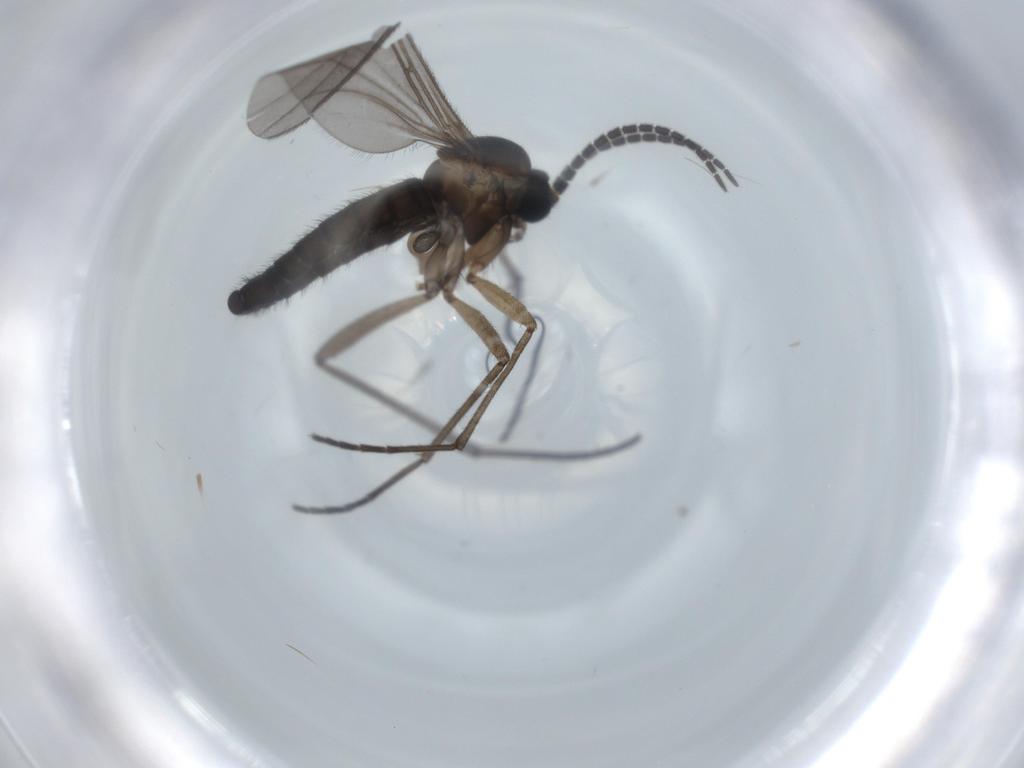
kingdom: Animalia
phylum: Arthropoda
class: Insecta
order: Diptera
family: Sciaridae
